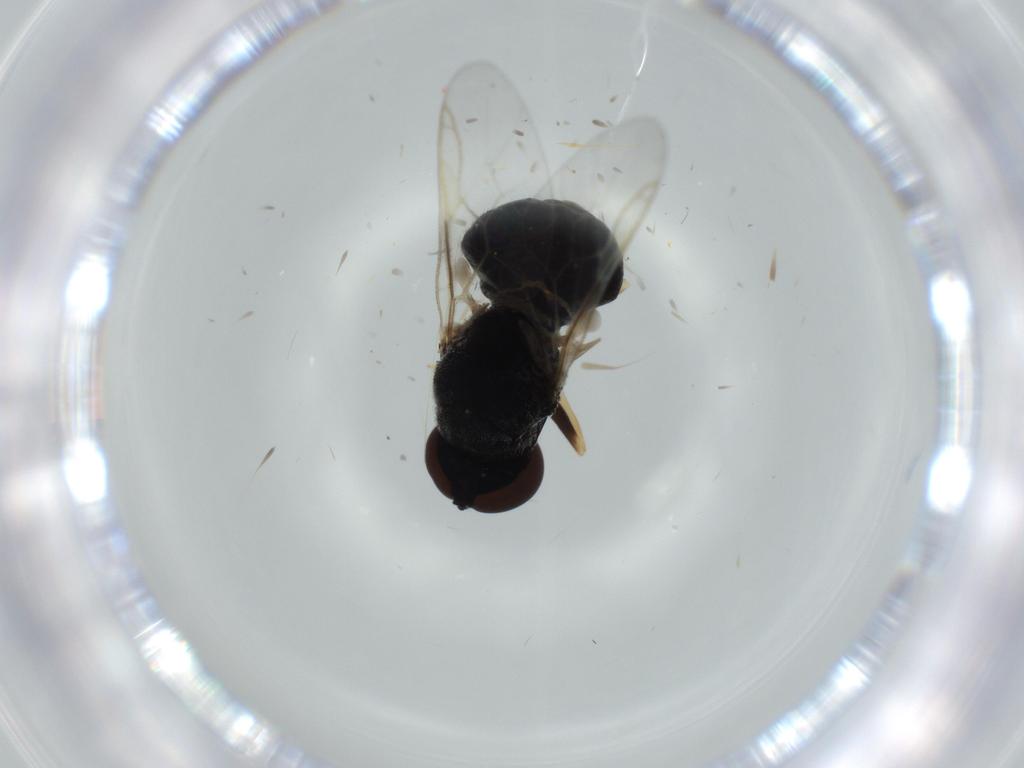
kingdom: Animalia
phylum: Arthropoda
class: Insecta
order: Diptera
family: Stratiomyidae
